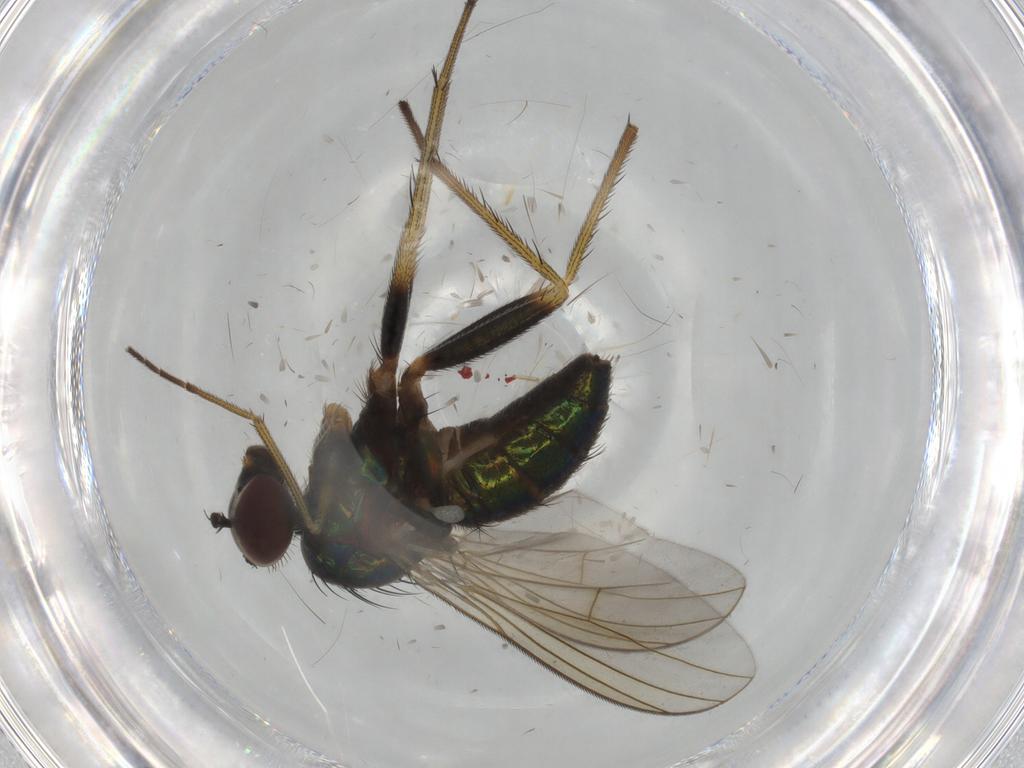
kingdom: Animalia
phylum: Arthropoda
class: Insecta
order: Diptera
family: Dolichopodidae
